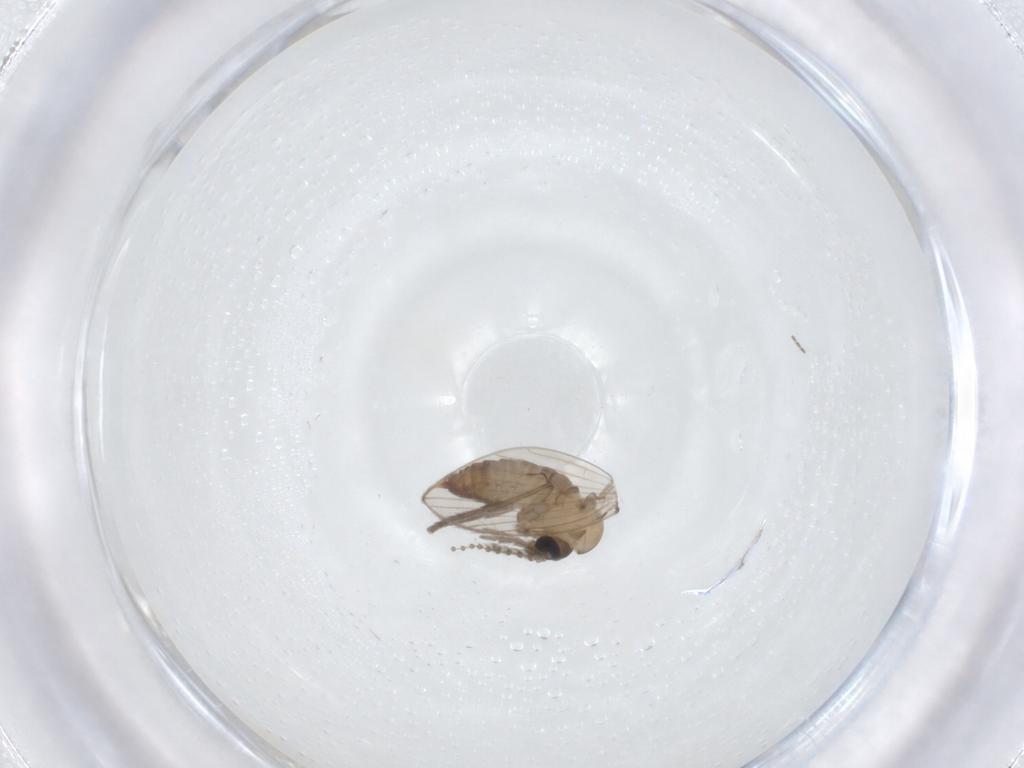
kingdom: Animalia
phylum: Arthropoda
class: Insecta
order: Diptera
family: Psychodidae
